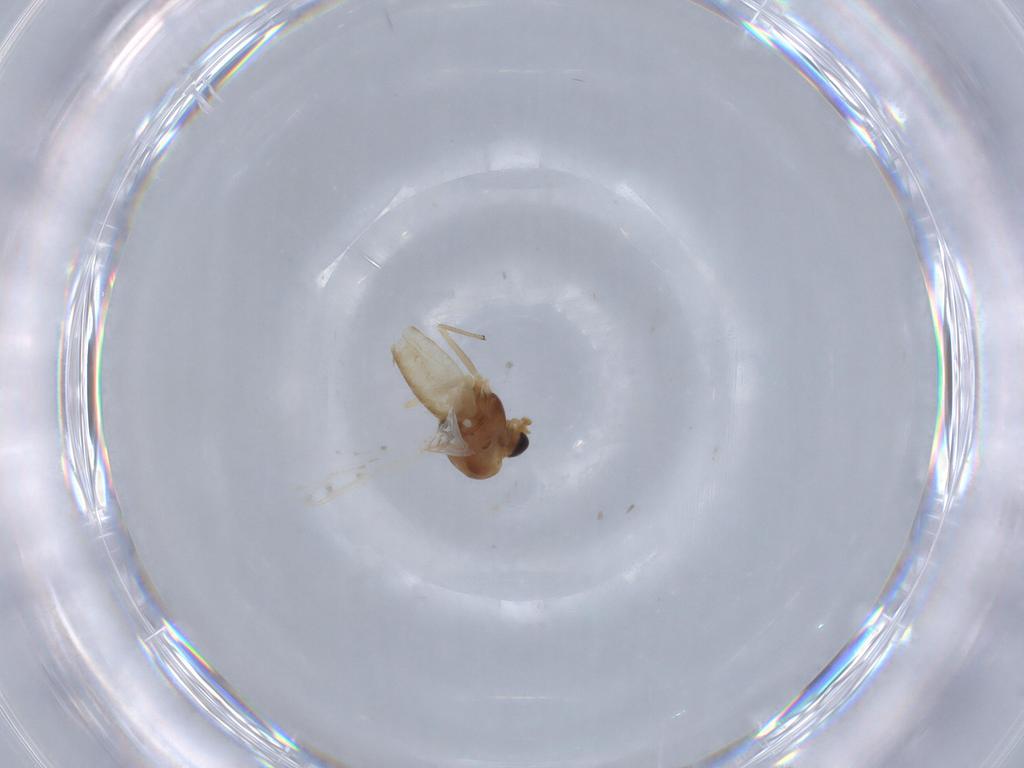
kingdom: Animalia
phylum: Arthropoda
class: Insecta
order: Diptera
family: Chironomidae
